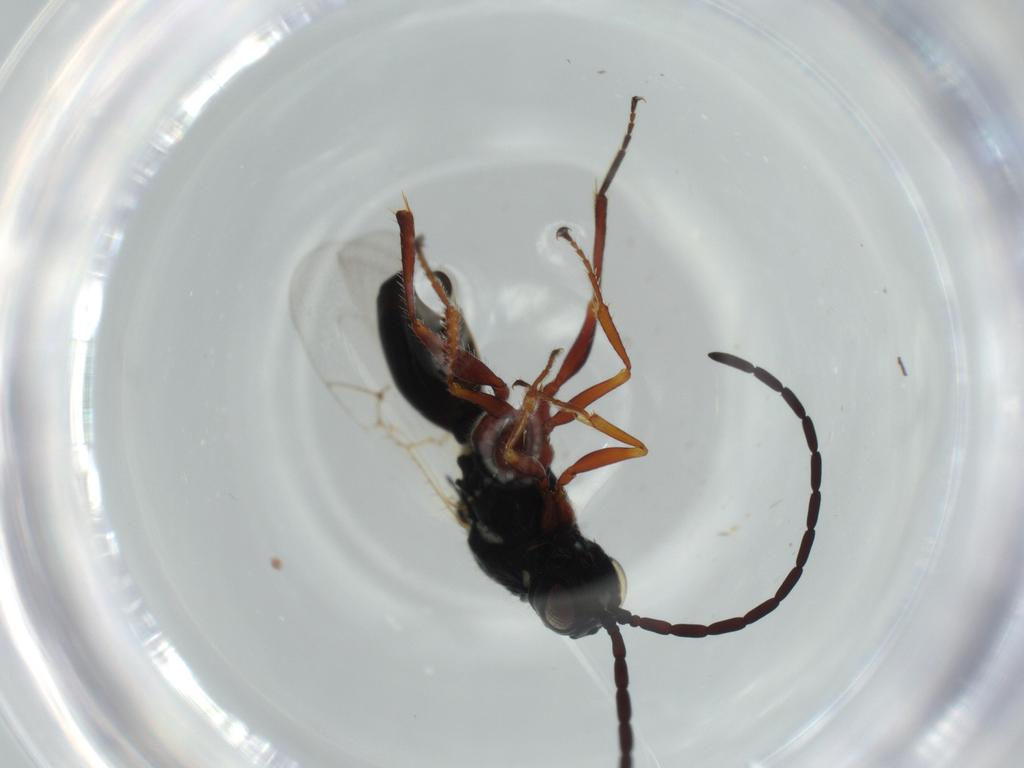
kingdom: Animalia
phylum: Arthropoda
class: Insecta
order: Hymenoptera
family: Figitidae
